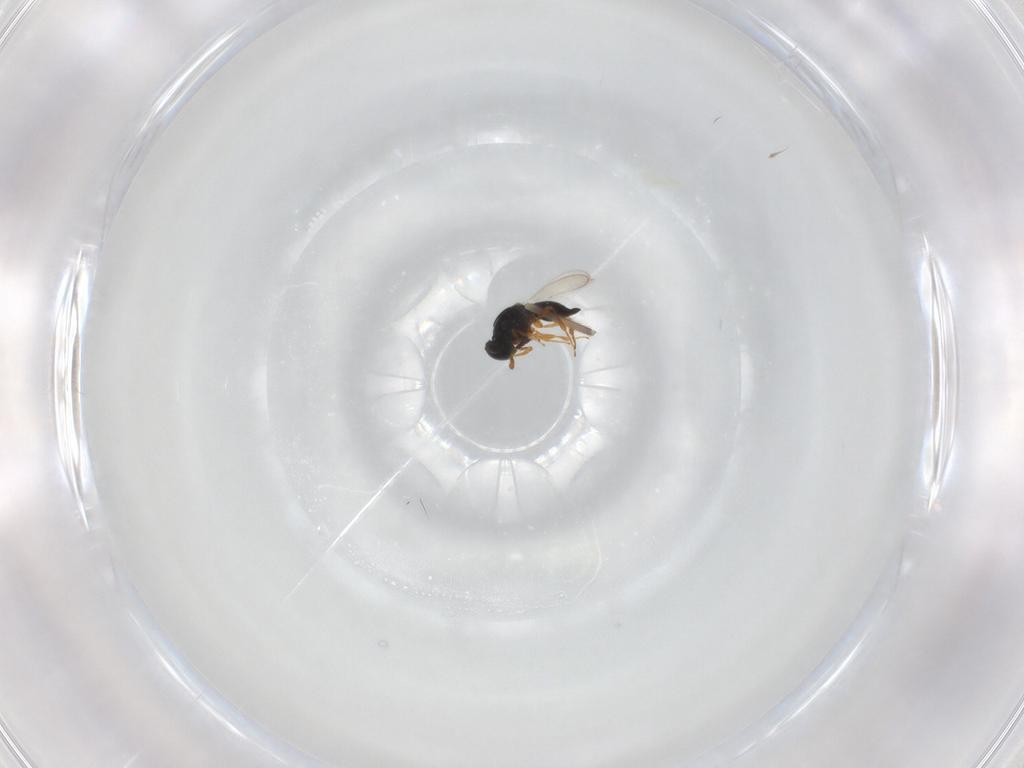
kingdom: Animalia
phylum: Arthropoda
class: Insecta
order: Hymenoptera
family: Platygastridae
